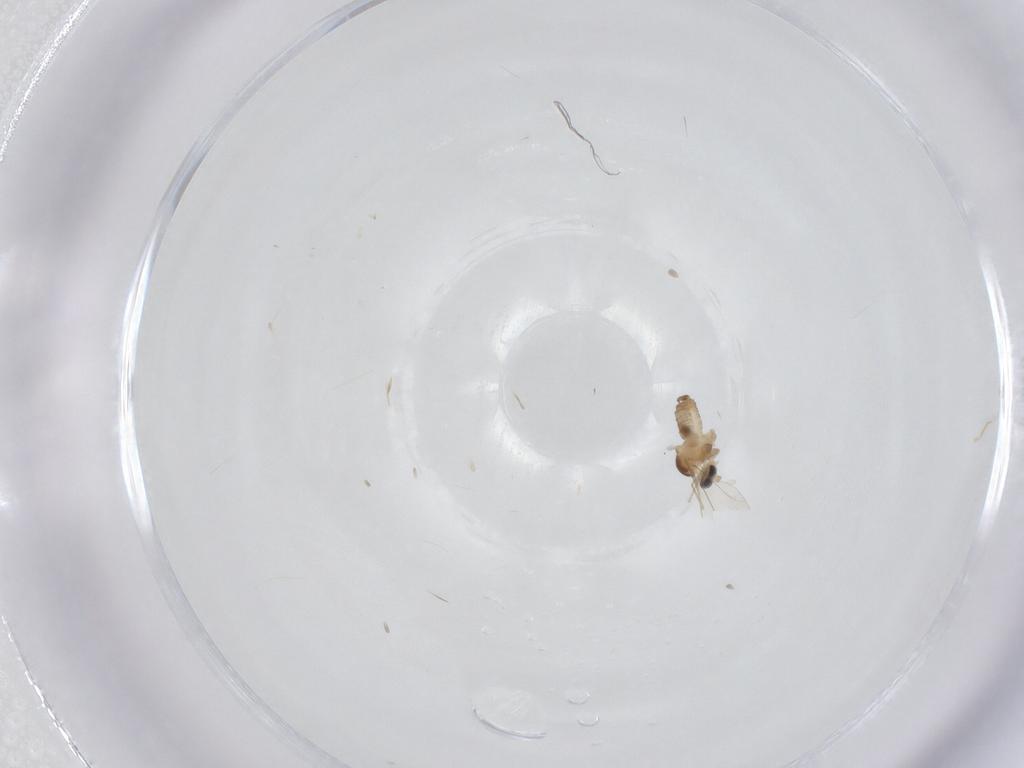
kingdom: Animalia
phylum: Arthropoda
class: Insecta
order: Diptera
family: Cecidomyiidae
